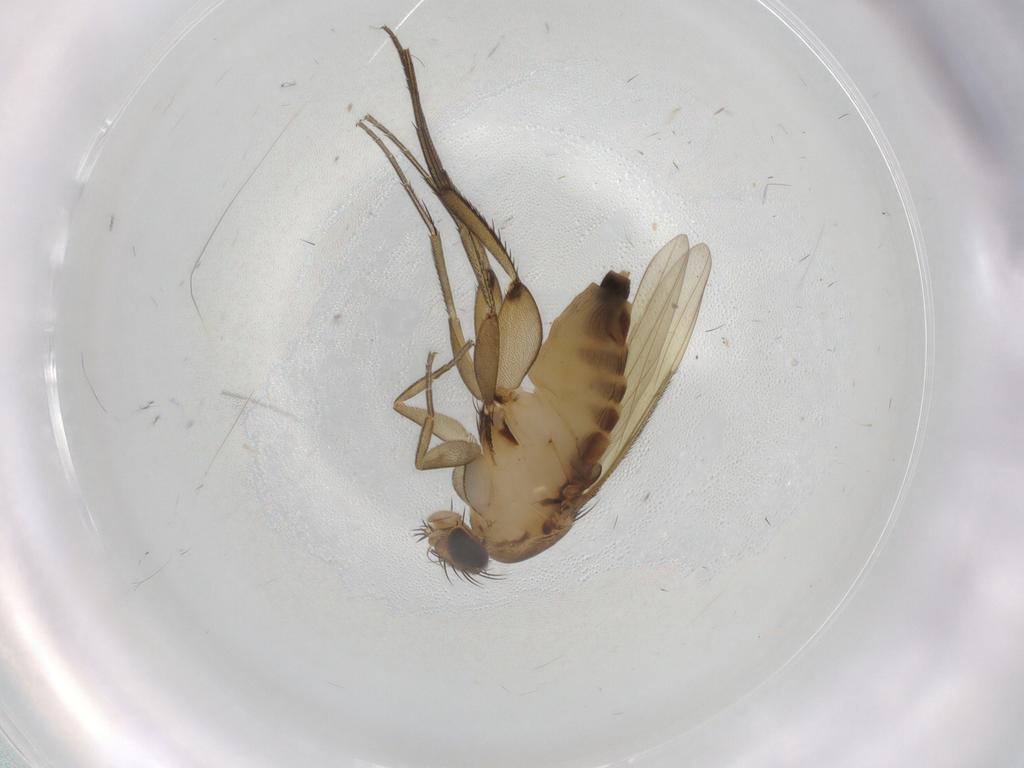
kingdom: Animalia
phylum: Arthropoda
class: Insecta
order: Diptera
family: Phoridae
